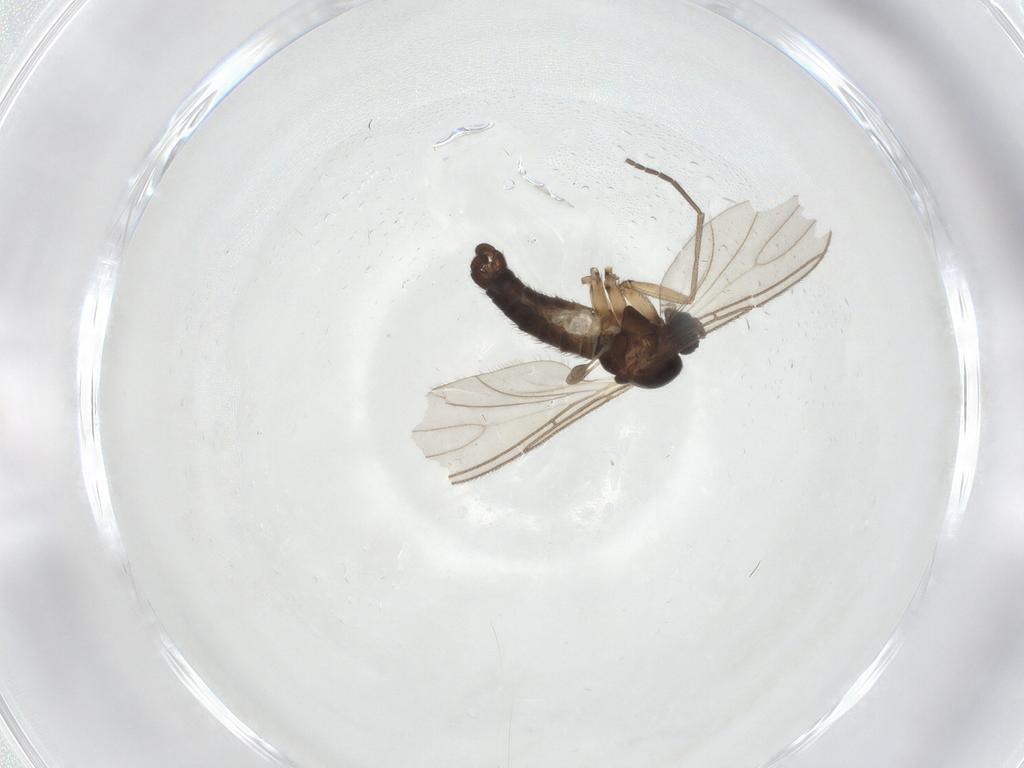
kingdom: Animalia
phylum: Arthropoda
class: Insecta
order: Diptera
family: Sciaridae
